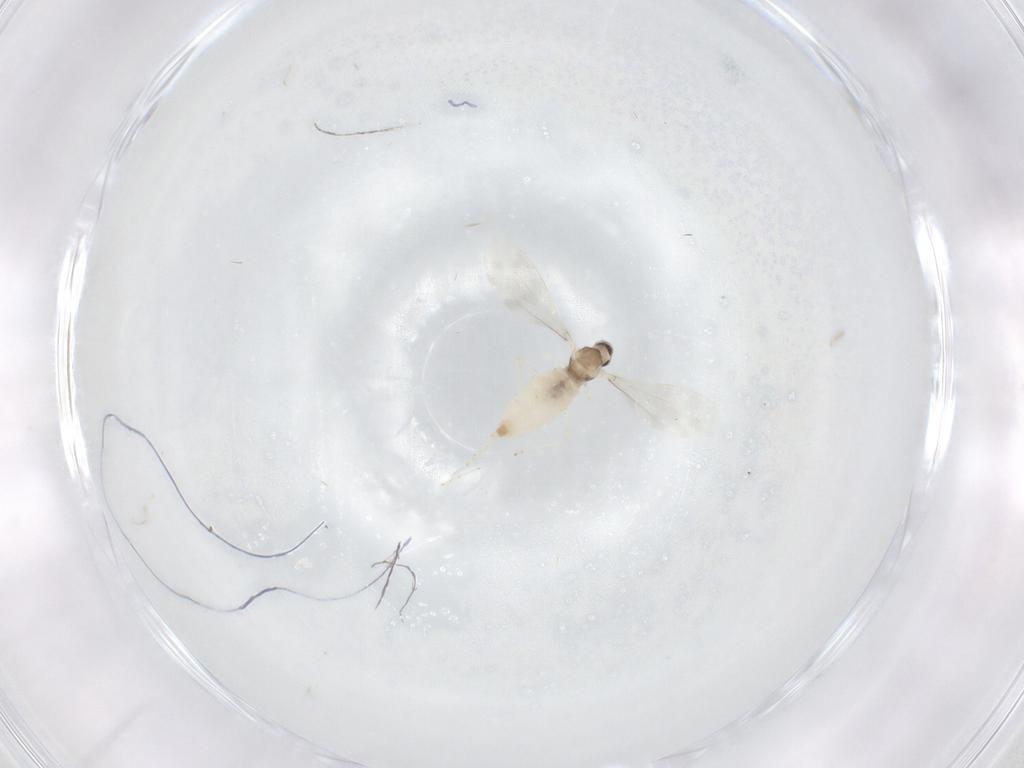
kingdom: Animalia
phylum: Arthropoda
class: Insecta
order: Diptera
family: Cecidomyiidae
